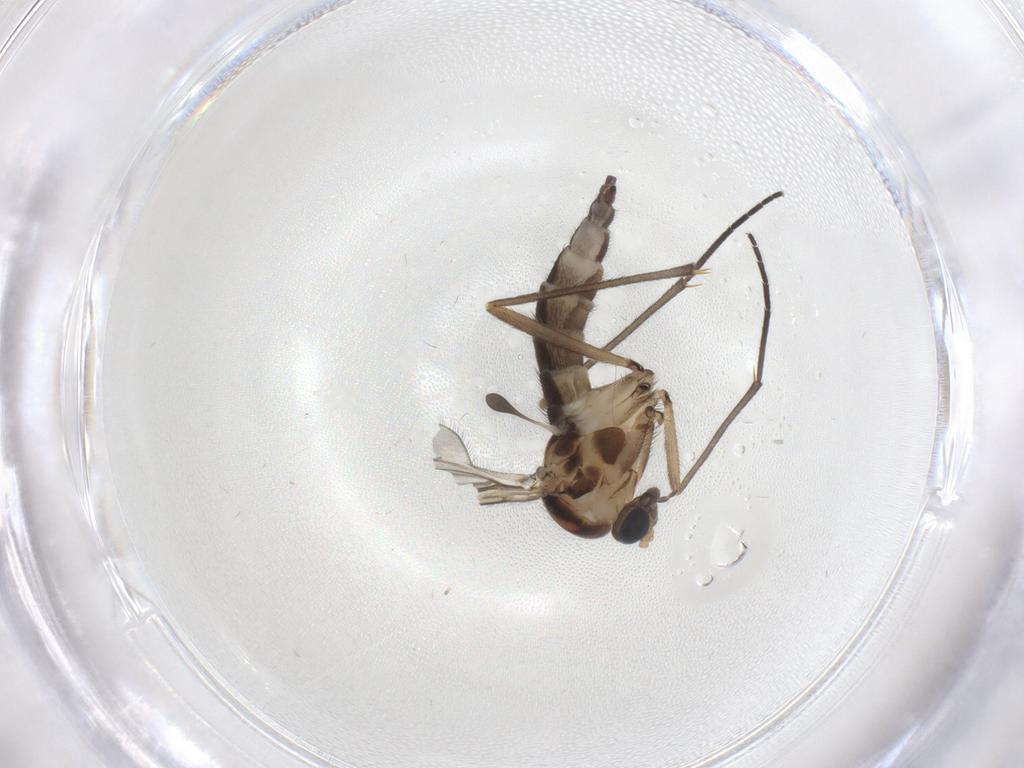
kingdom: Animalia
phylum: Arthropoda
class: Insecta
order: Diptera
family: Sciaridae
